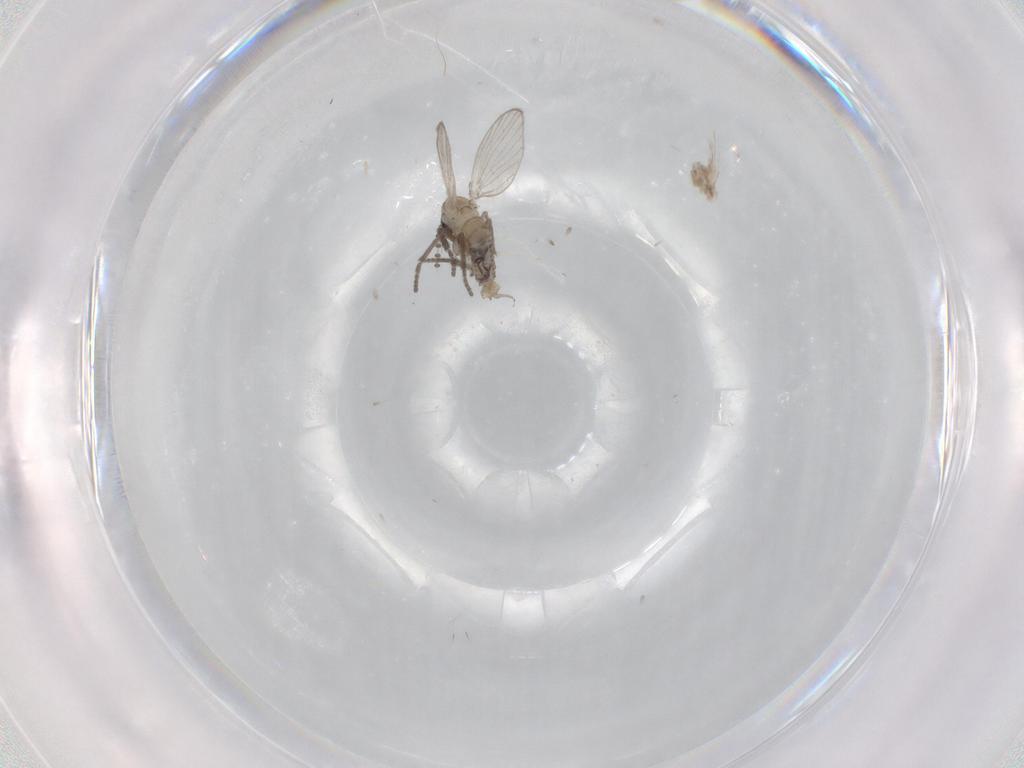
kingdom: Animalia
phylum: Arthropoda
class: Insecta
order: Diptera
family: Psychodidae
